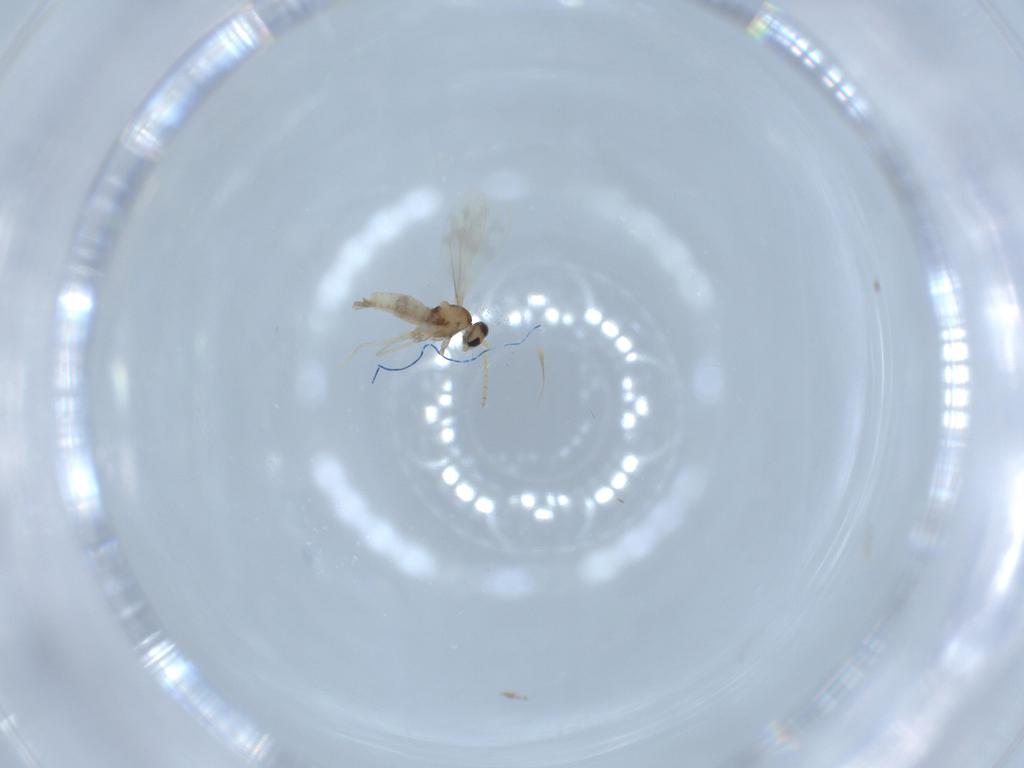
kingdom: Animalia
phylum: Arthropoda
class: Insecta
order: Diptera
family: Cecidomyiidae
